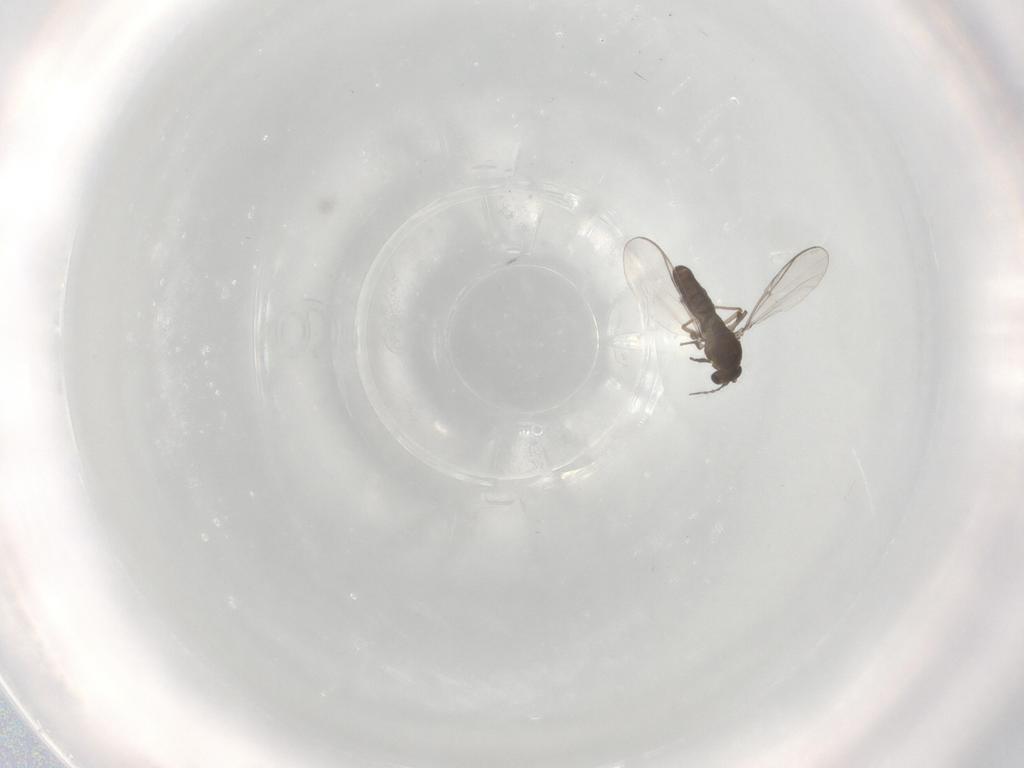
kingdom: Animalia
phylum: Arthropoda
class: Insecta
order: Diptera
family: Chironomidae
